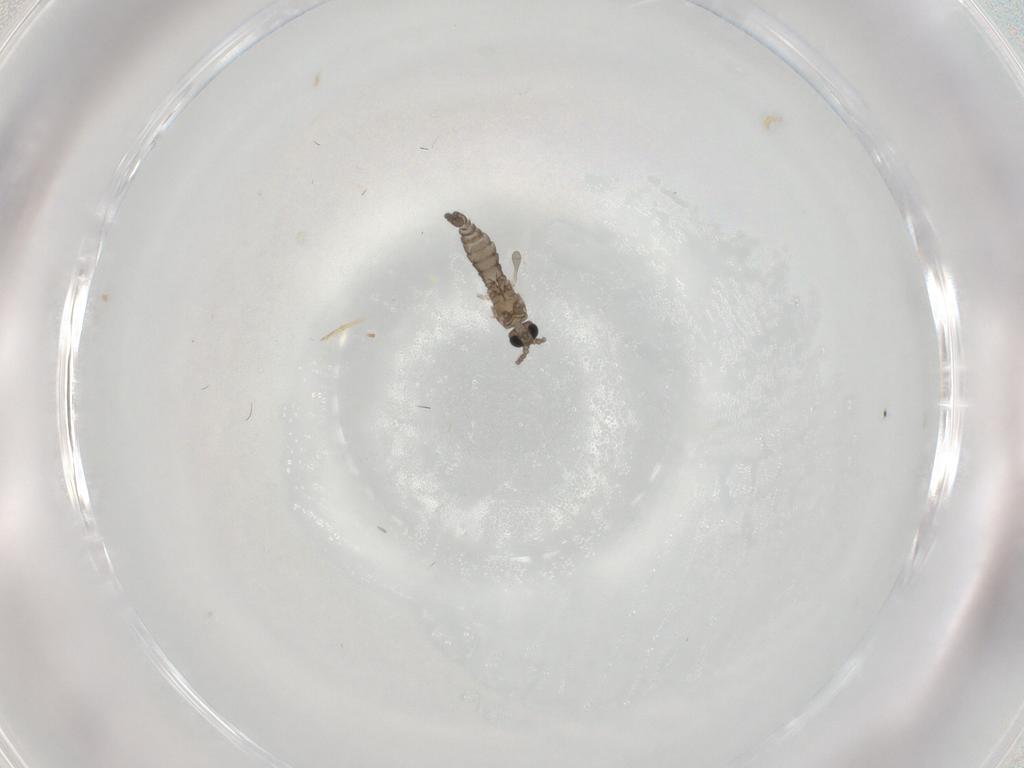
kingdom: Animalia
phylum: Arthropoda
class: Insecta
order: Diptera
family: Sciaridae
